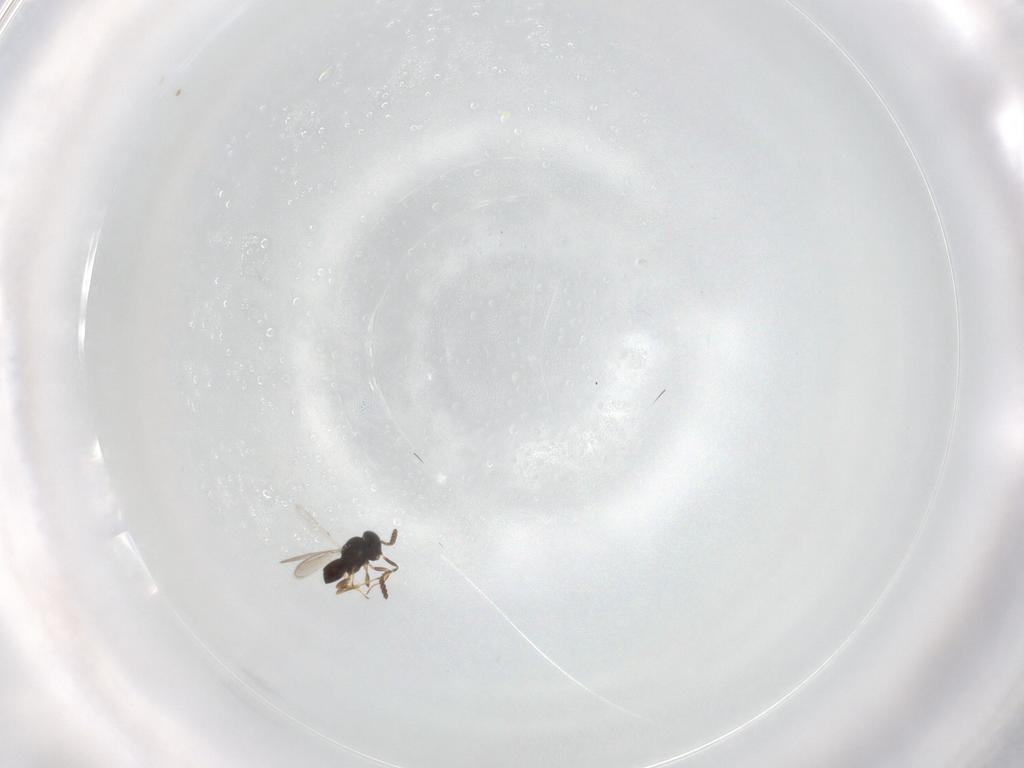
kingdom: Animalia
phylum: Arthropoda
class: Insecta
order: Hymenoptera
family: Scelionidae
